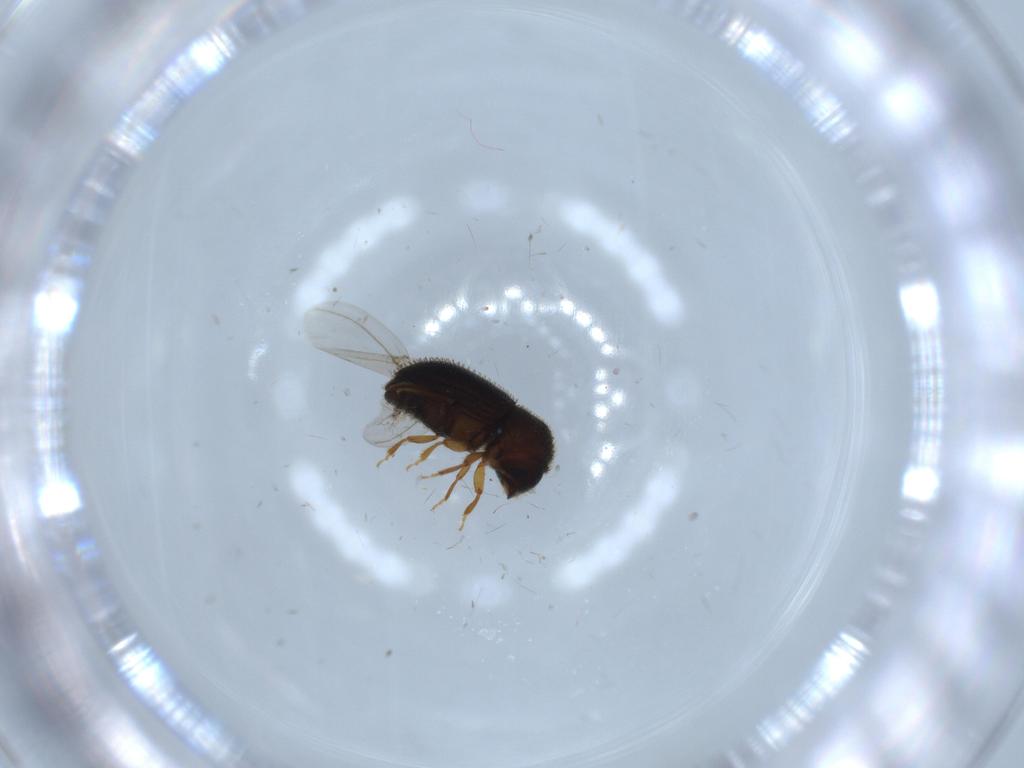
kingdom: Animalia
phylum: Arthropoda
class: Insecta
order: Coleoptera
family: Curculionidae
